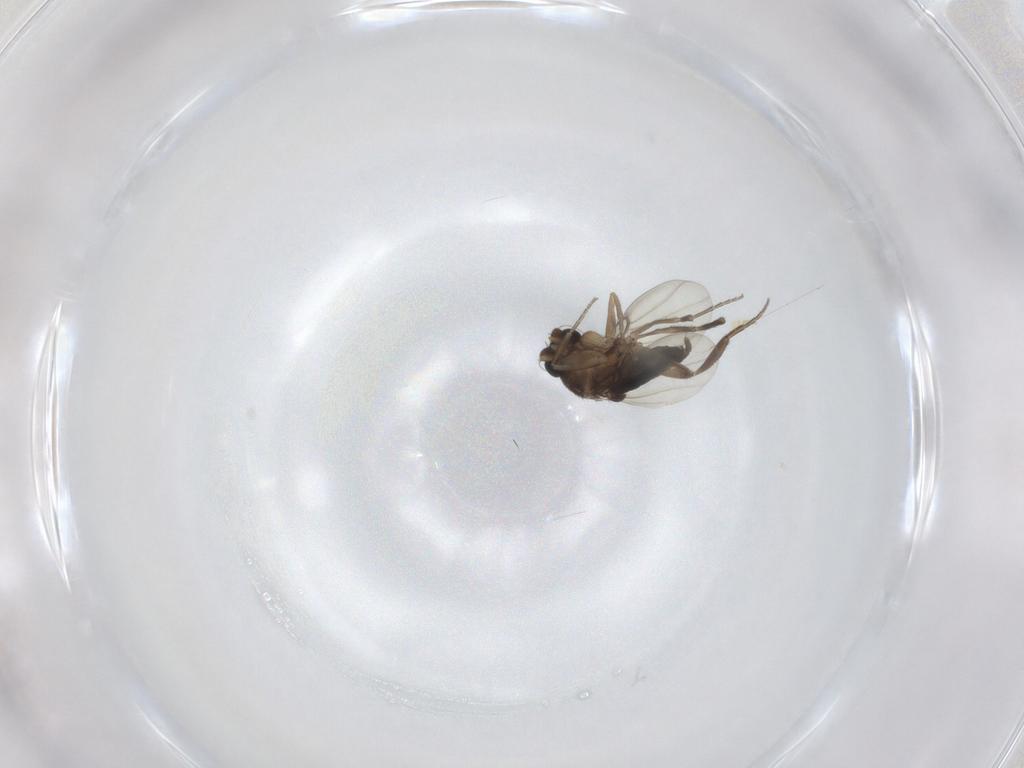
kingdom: Animalia
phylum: Arthropoda
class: Insecta
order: Diptera
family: Phoridae
